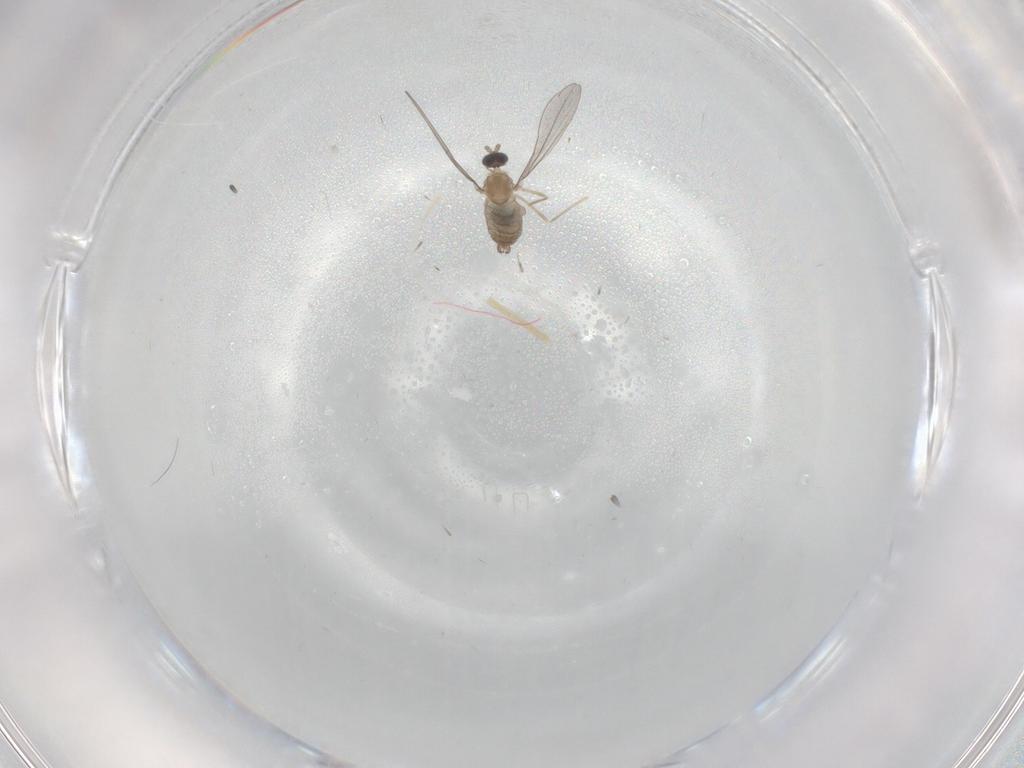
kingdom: Animalia
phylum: Arthropoda
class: Insecta
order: Diptera
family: Cecidomyiidae
